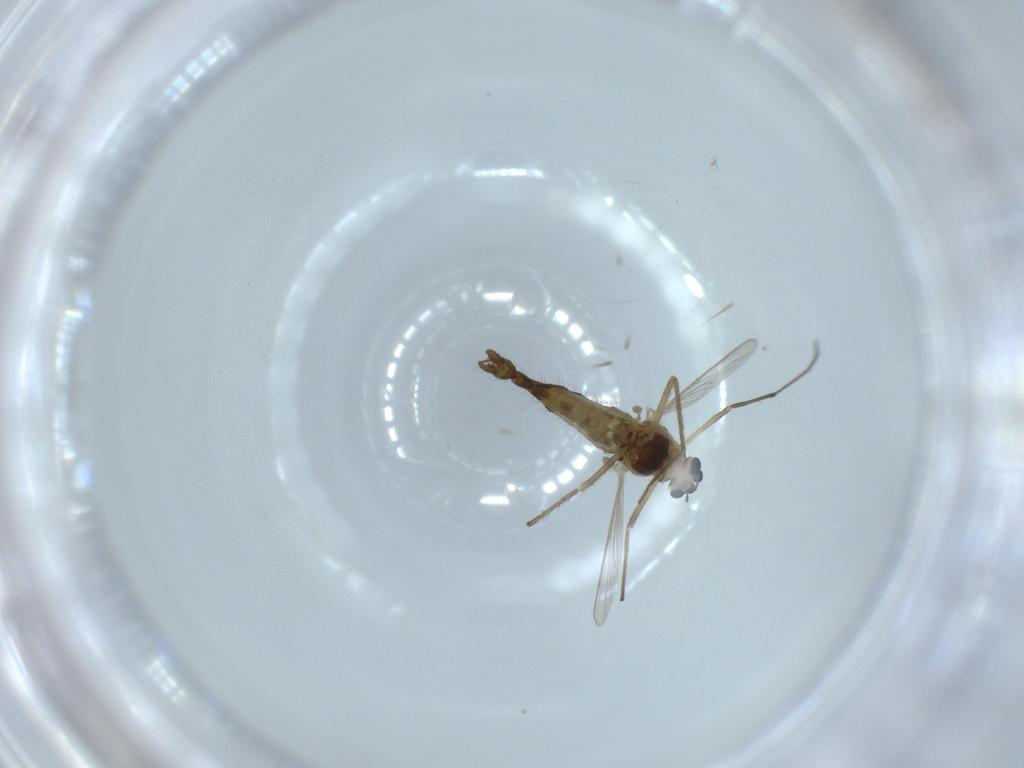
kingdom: Animalia
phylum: Arthropoda
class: Insecta
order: Diptera
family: Chironomidae
